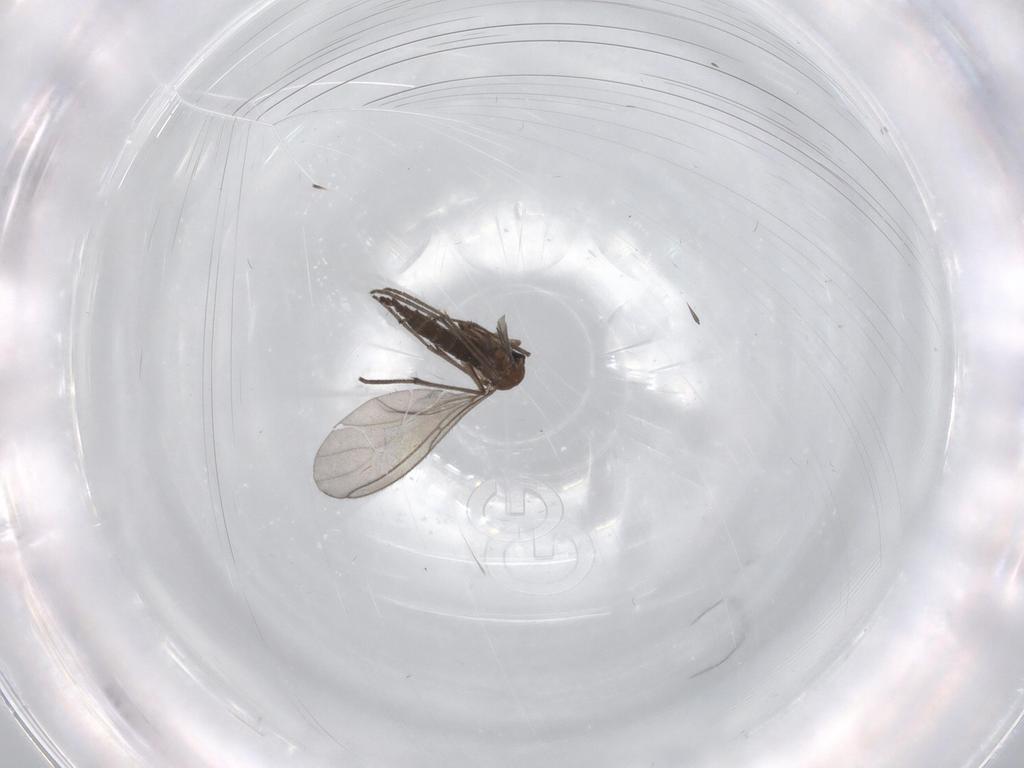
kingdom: Animalia
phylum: Arthropoda
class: Insecta
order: Diptera
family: Sciaridae
